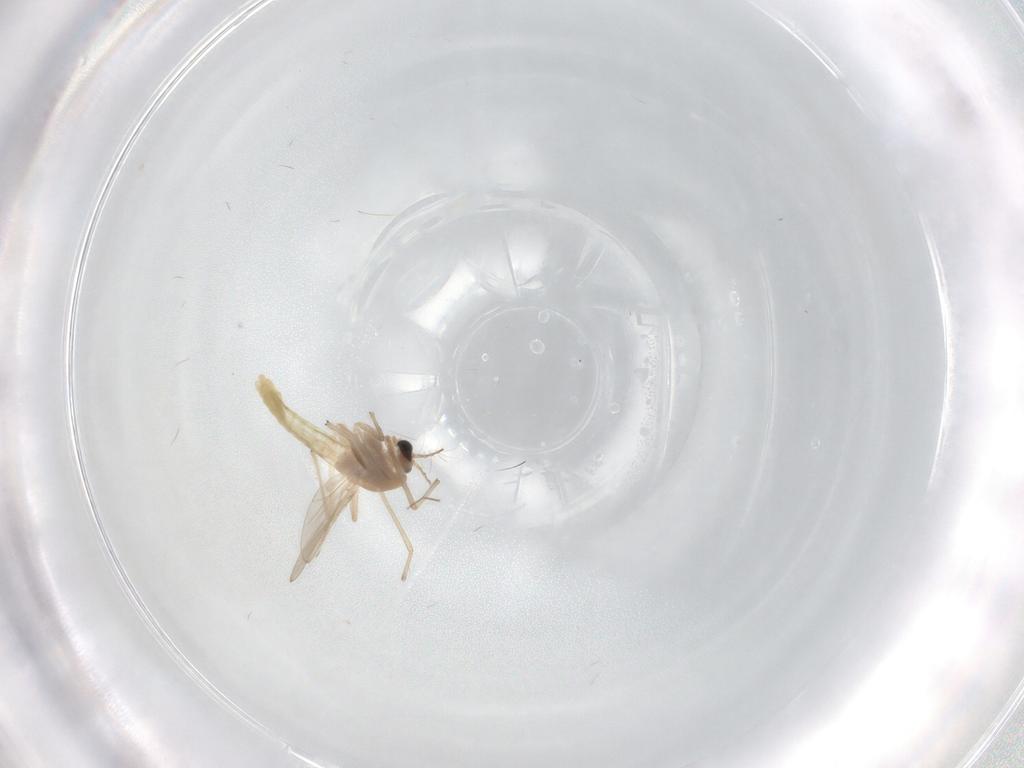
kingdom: Animalia
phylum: Arthropoda
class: Insecta
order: Diptera
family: Chironomidae
